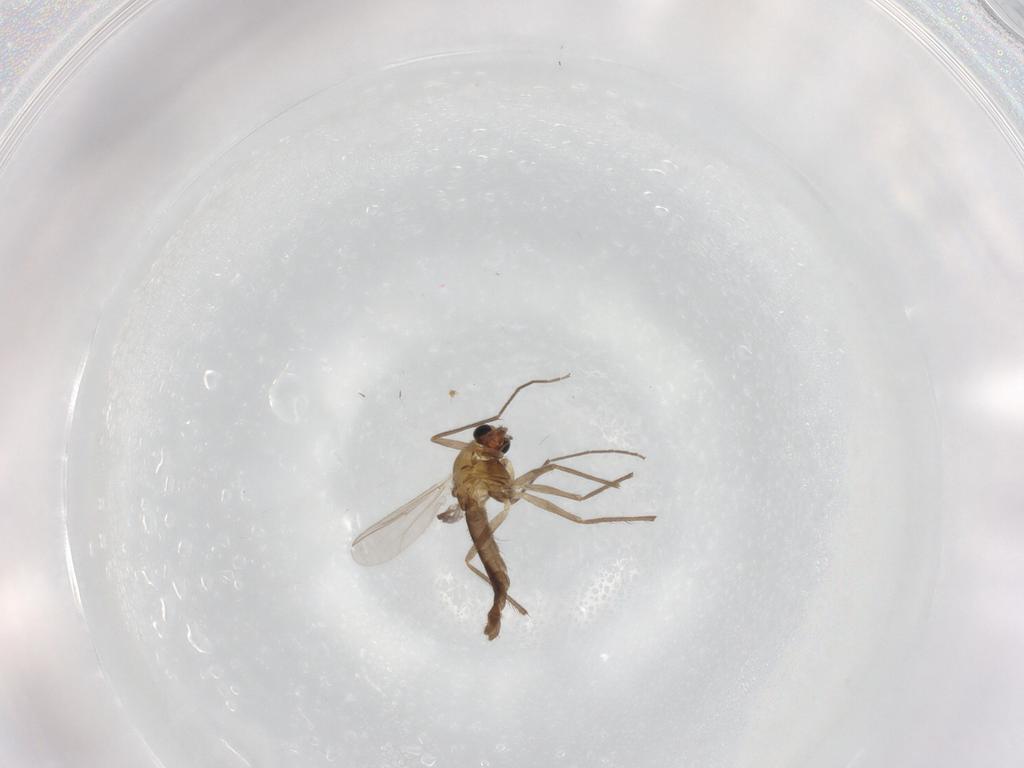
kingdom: Animalia
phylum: Arthropoda
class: Insecta
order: Diptera
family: Chironomidae
